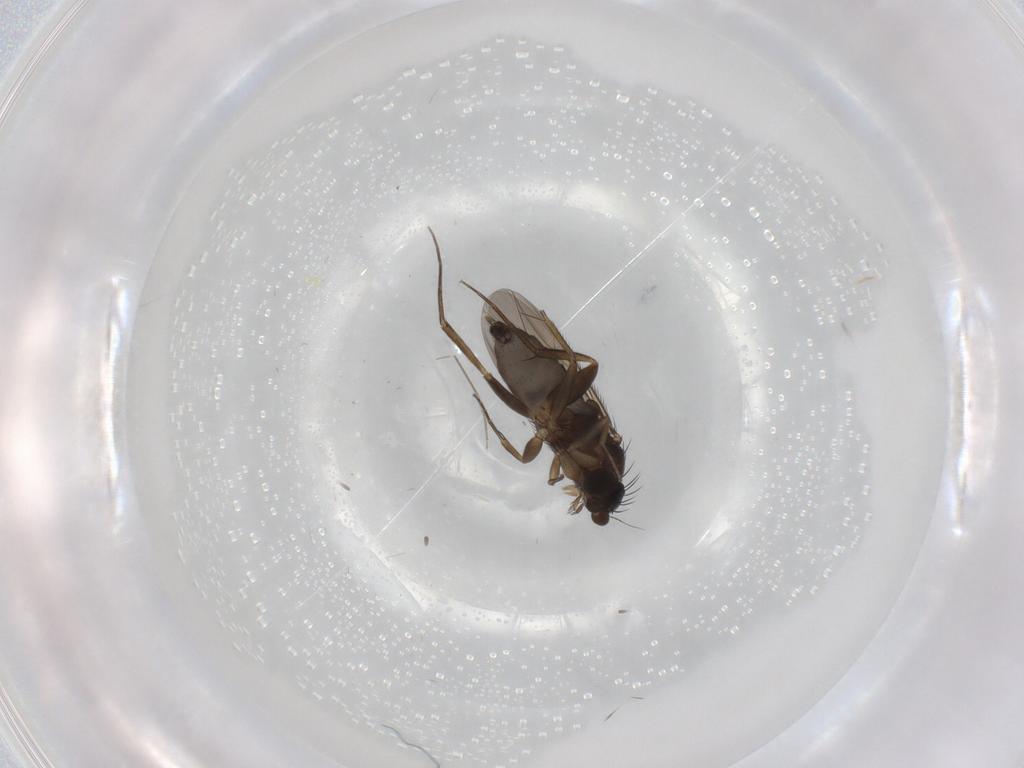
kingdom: Animalia
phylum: Arthropoda
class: Insecta
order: Diptera
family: Phoridae
